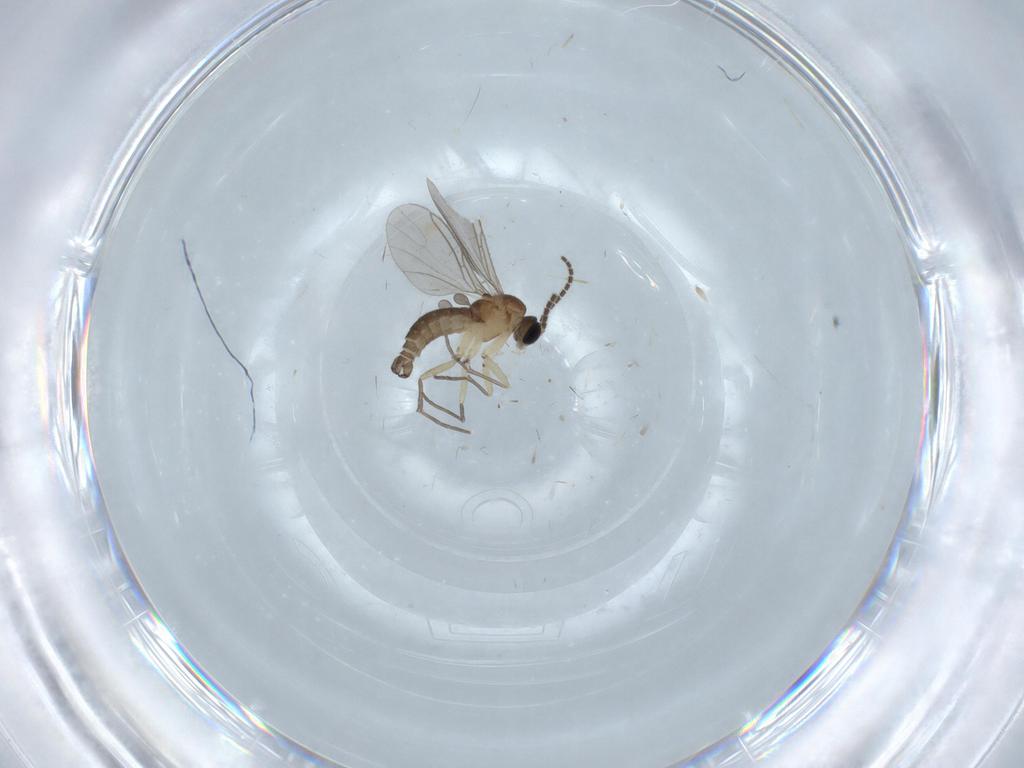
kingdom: Animalia
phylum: Arthropoda
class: Insecta
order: Diptera
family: Sciaridae
